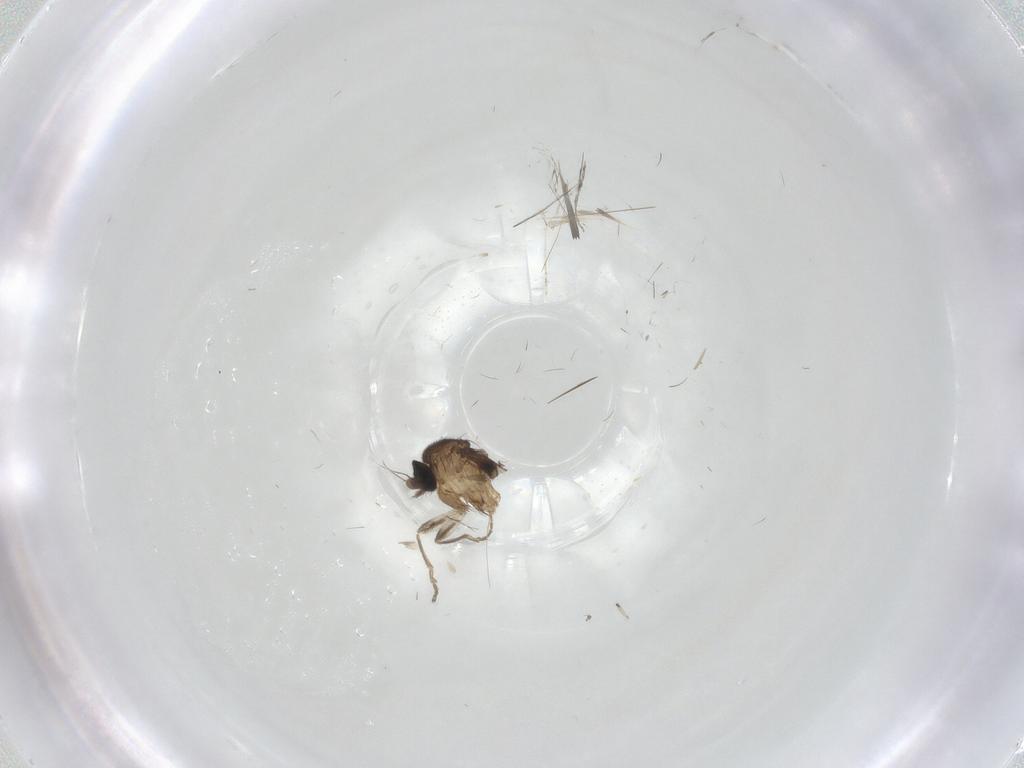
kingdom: Animalia
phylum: Arthropoda
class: Insecta
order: Diptera
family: Cecidomyiidae
